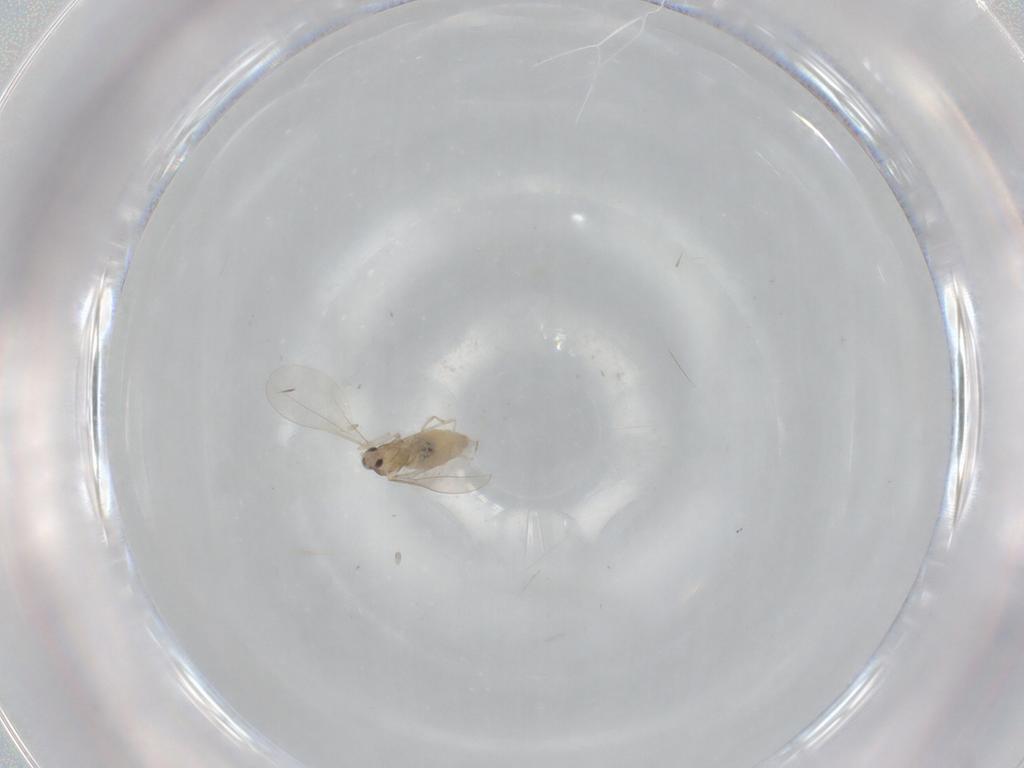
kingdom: Animalia
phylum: Arthropoda
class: Insecta
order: Diptera
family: Cecidomyiidae
